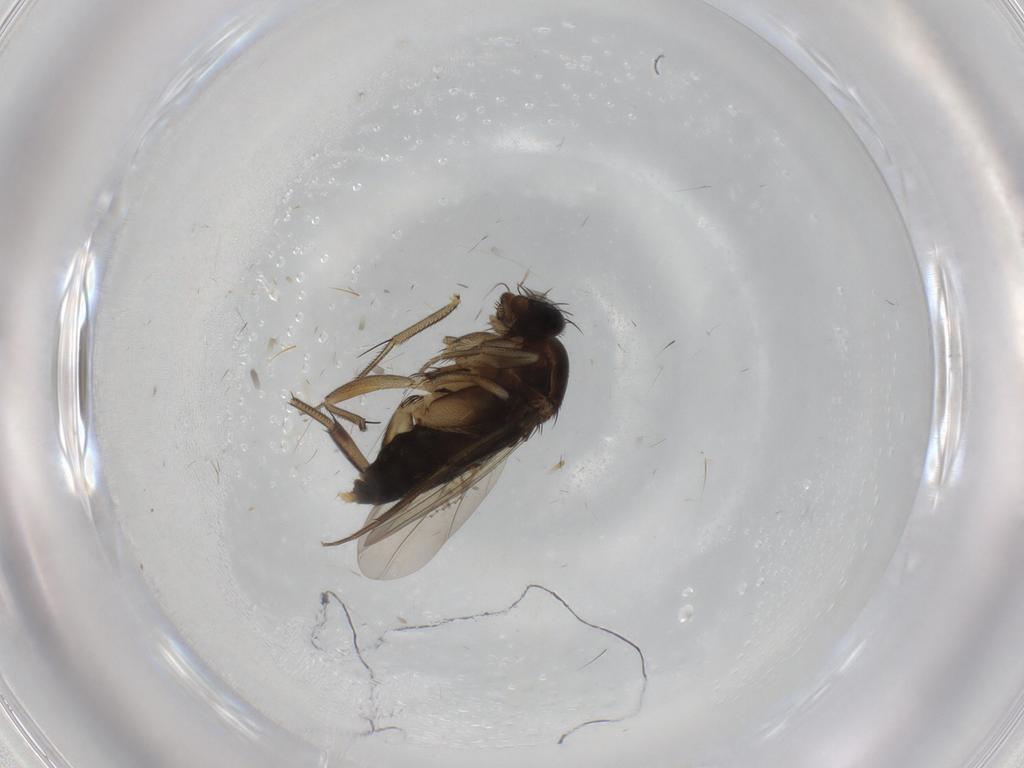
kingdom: Animalia
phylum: Arthropoda
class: Insecta
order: Diptera
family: Phoridae
